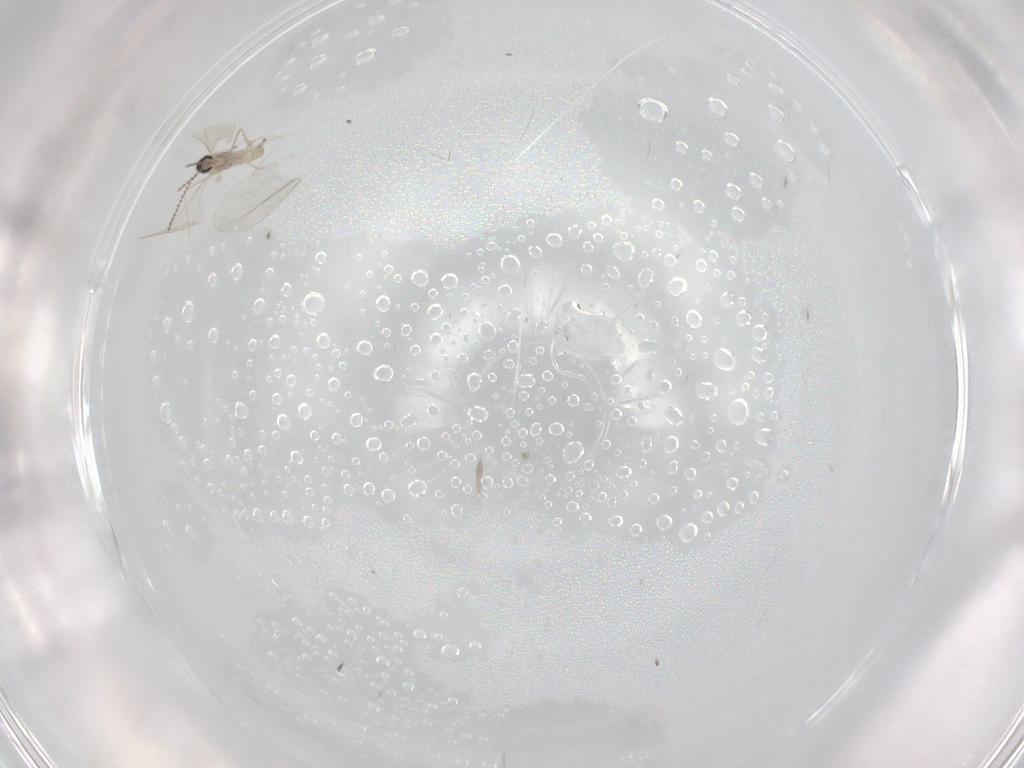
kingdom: Animalia
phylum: Arthropoda
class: Insecta
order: Diptera
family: Cecidomyiidae
